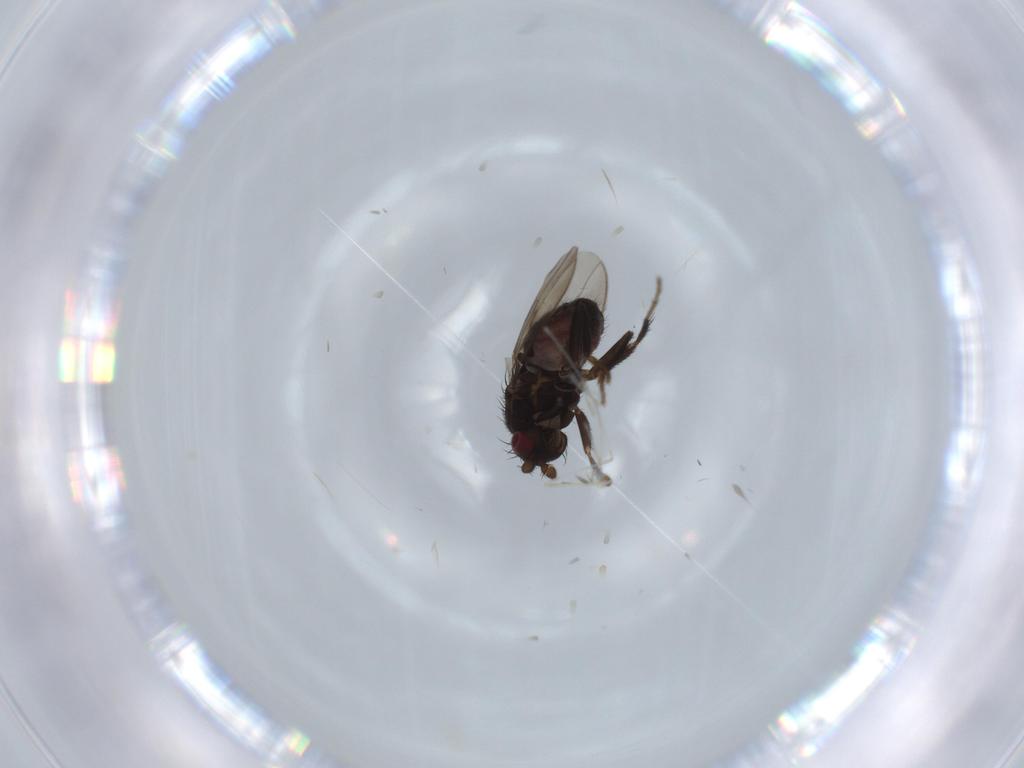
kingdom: Animalia
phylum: Arthropoda
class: Insecta
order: Diptera
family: Sphaeroceridae
